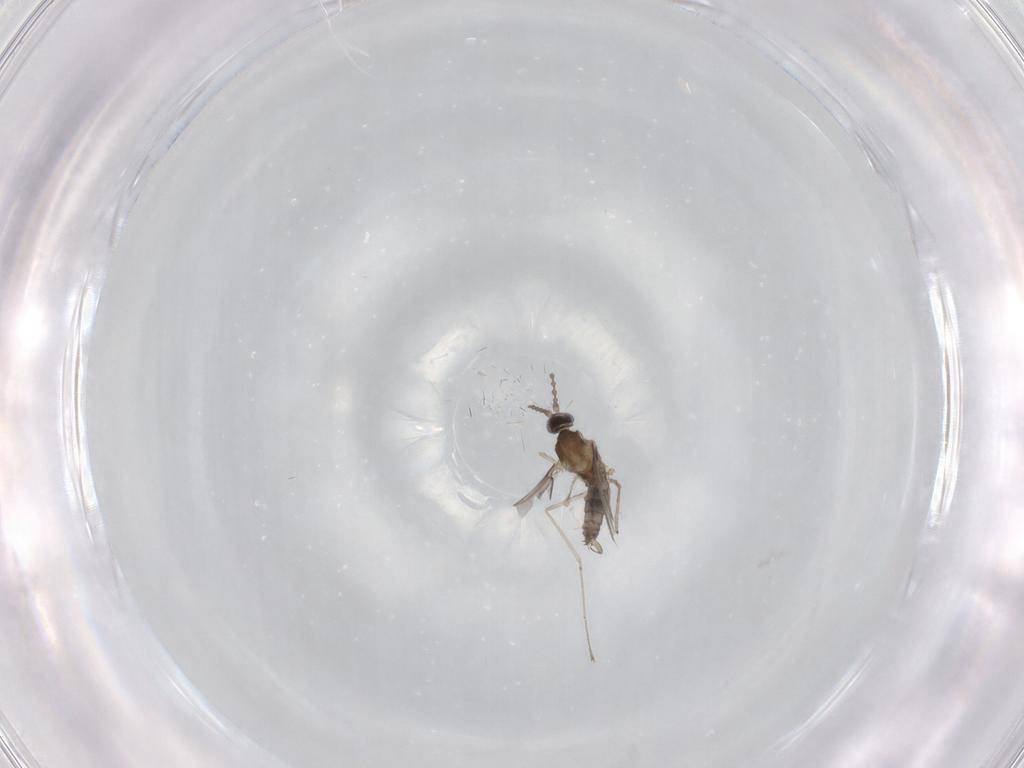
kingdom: Animalia
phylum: Arthropoda
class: Insecta
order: Diptera
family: Cecidomyiidae
